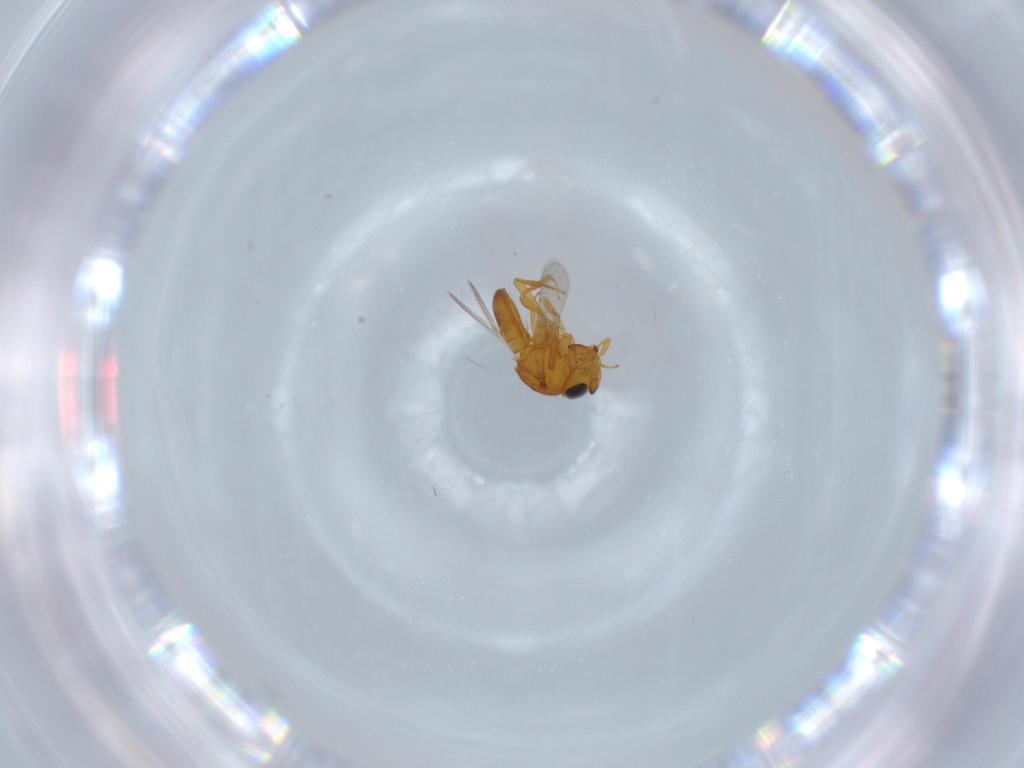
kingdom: Animalia
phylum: Arthropoda
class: Insecta
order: Hymenoptera
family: Scelionidae
